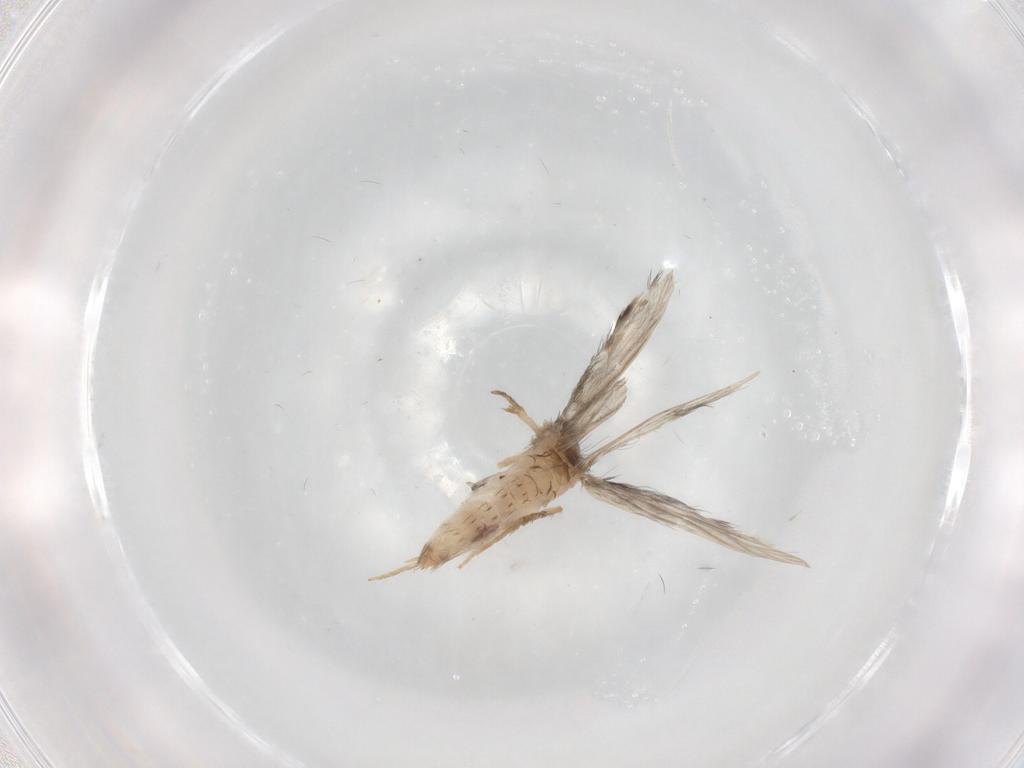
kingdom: Animalia
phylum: Arthropoda
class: Insecta
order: Trichoptera
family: Hydroptilidae
